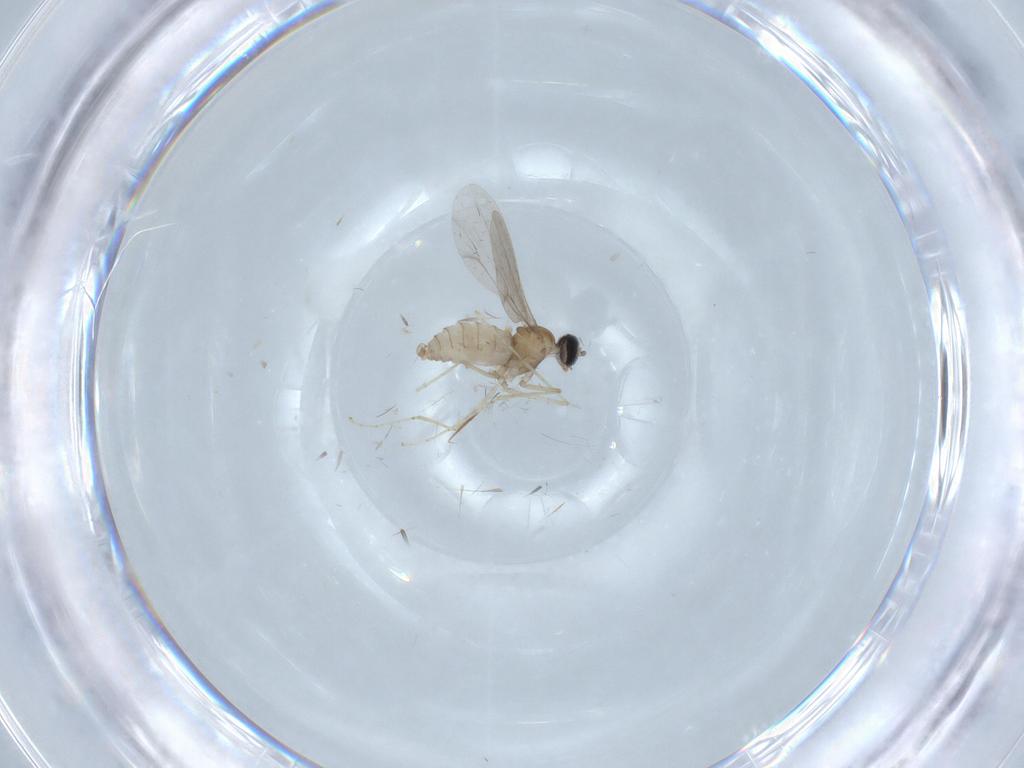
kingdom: Animalia
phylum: Arthropoda
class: Insecta
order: Diptera
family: Cecidomyiidae
